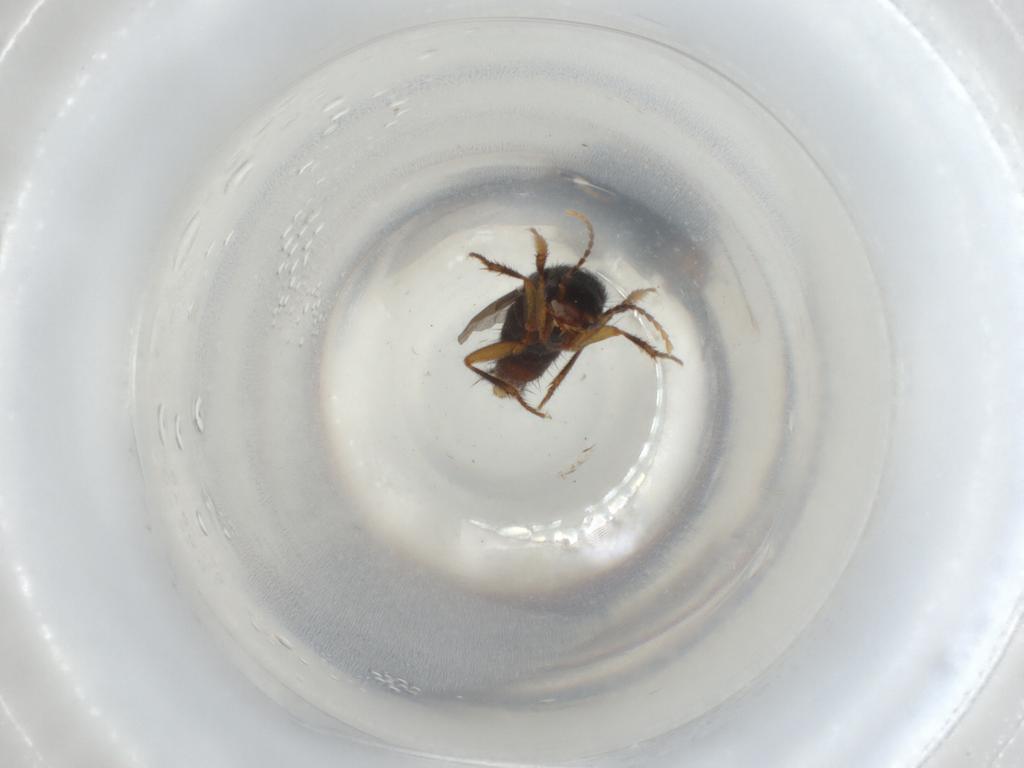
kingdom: Animalia
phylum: Arthropoda
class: Insecta
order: Coleoptera
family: Staphylinidae
